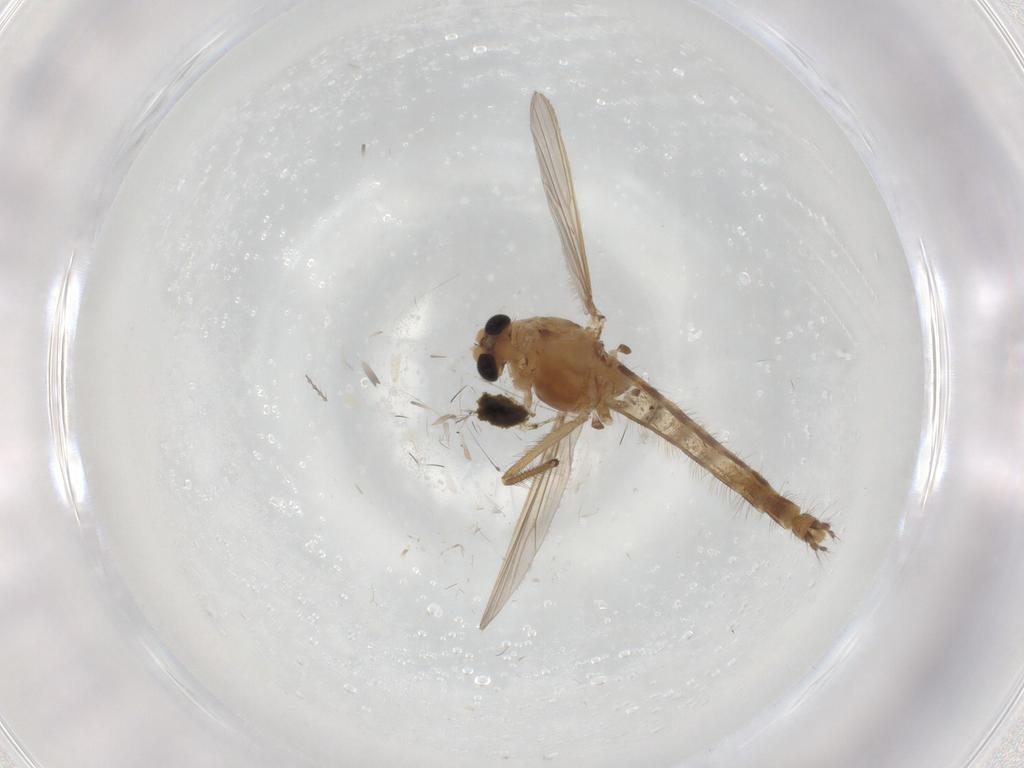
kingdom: Animalia
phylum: Arthropoda
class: Insecta
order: Diptera
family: Chironomidae
